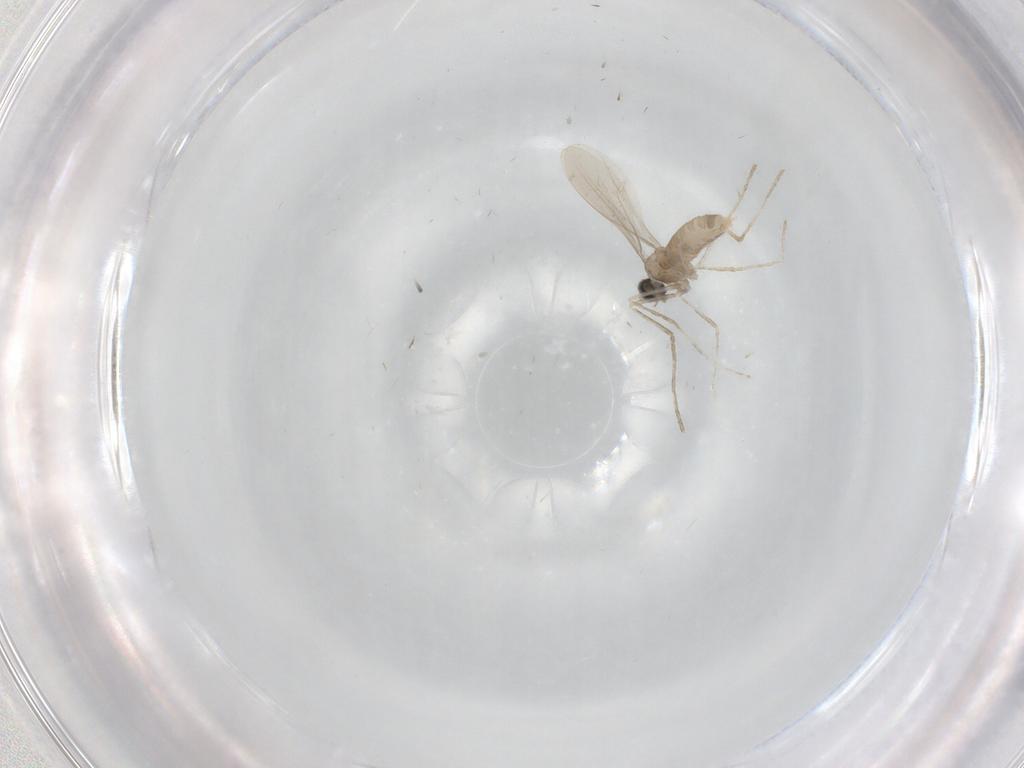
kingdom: Animalia
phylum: Arthropoda
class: Insecta
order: Diptera
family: Cecidomyiidae
